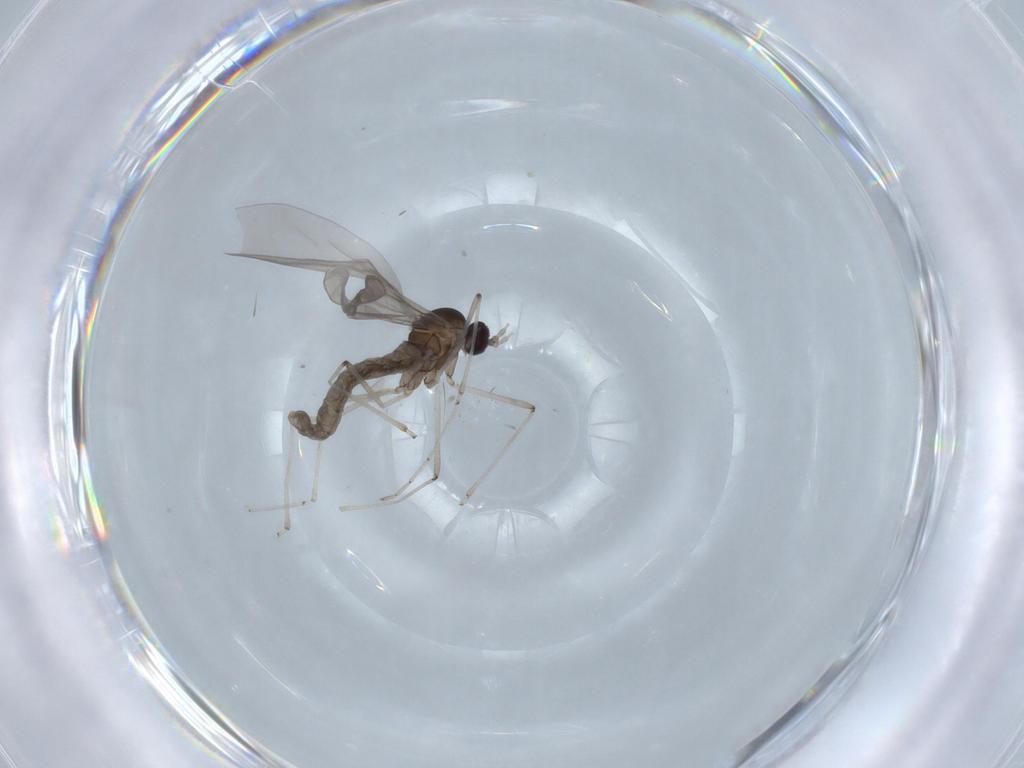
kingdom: Animalia
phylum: Arthropoda
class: Insecta
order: Diptera
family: Cecidomyiidae
